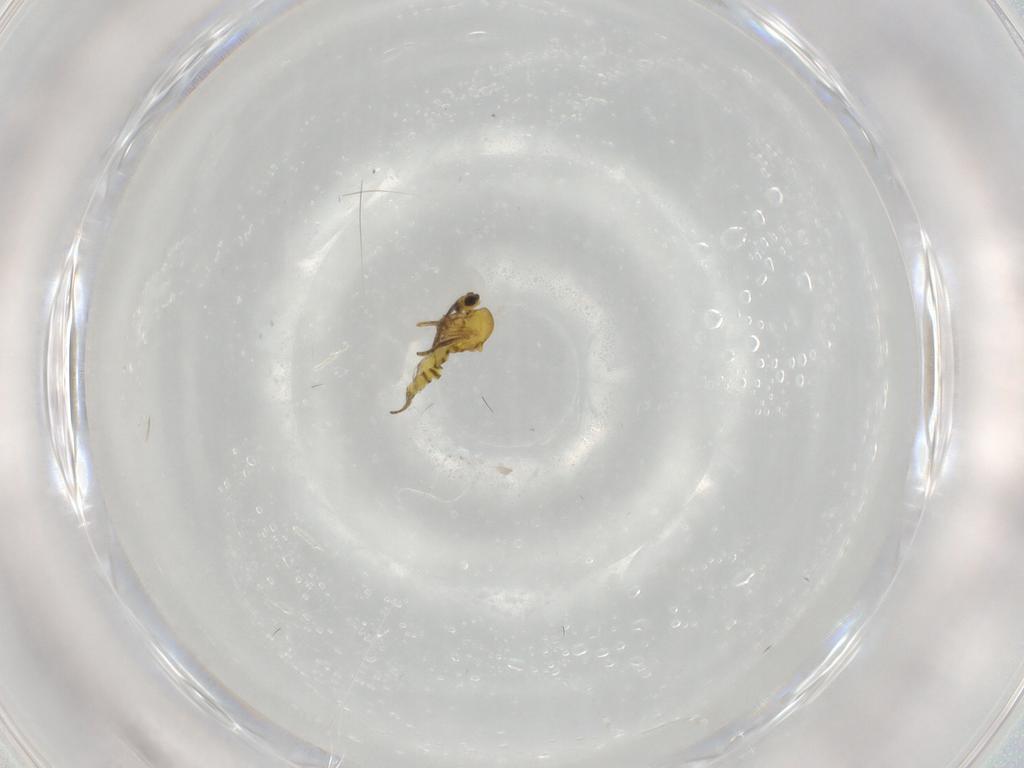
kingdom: Animalia
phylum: Arthropoda
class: Insecta
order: Diptera
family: Ceratopogonidae
